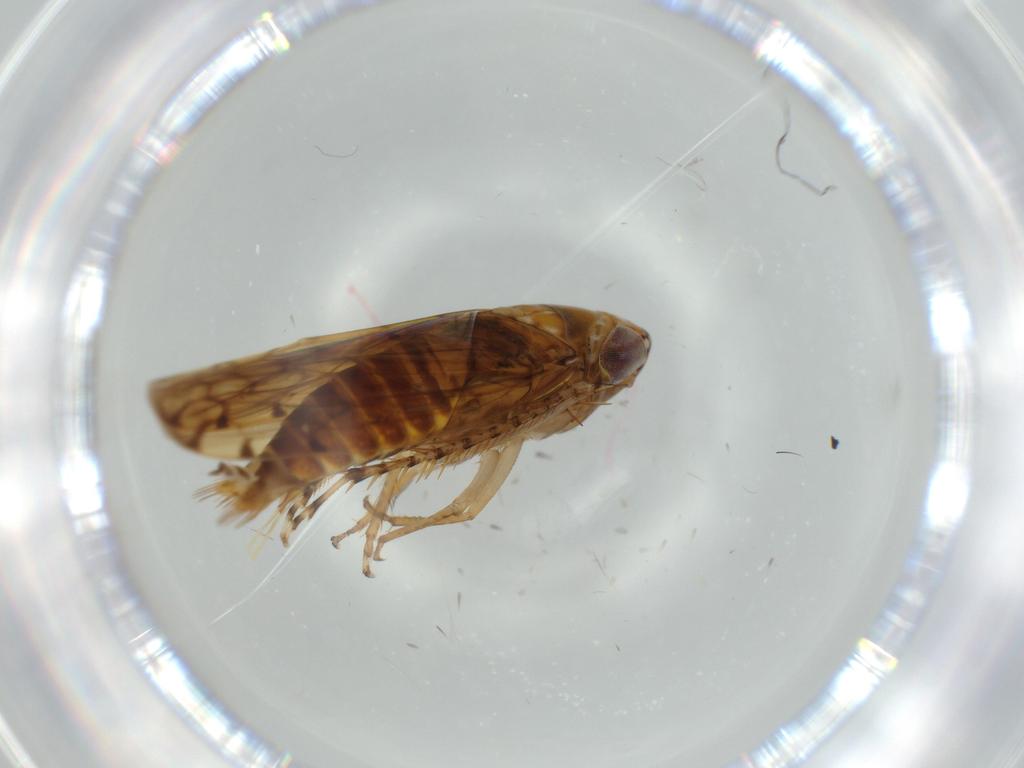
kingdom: Animalia
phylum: Arthropoda
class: Insecta
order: Hemiptera
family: Cicadellidae
